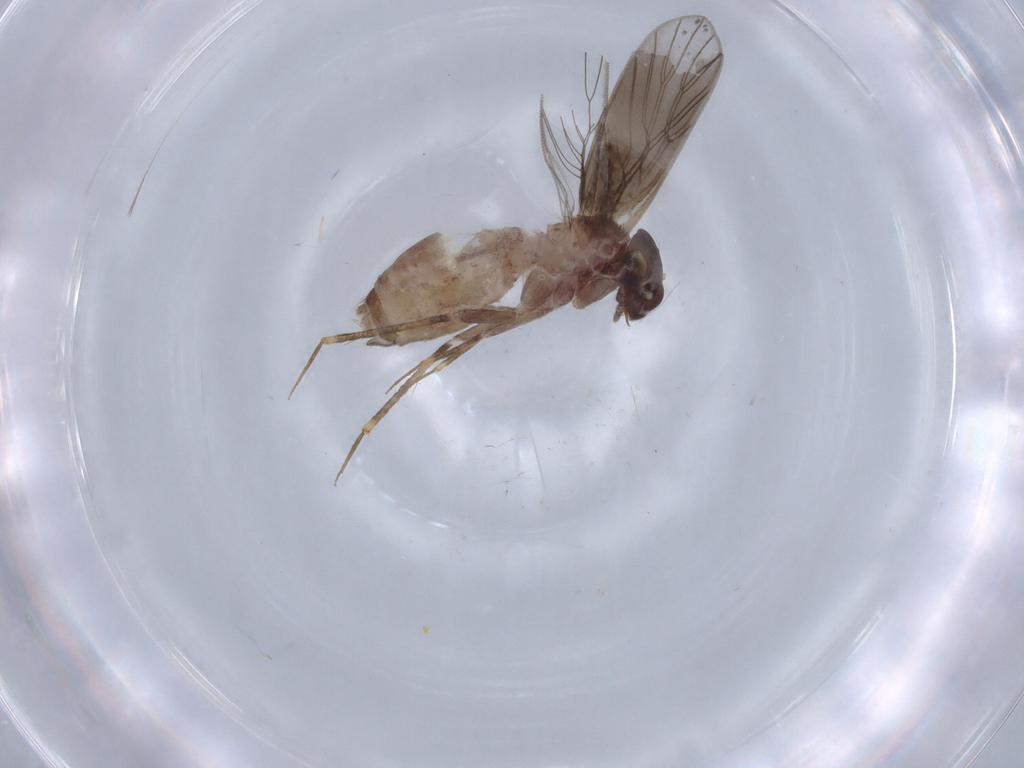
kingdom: Animalia
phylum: Arthropoda
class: Insecta
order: Psocodea
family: Lepidopsocidae
